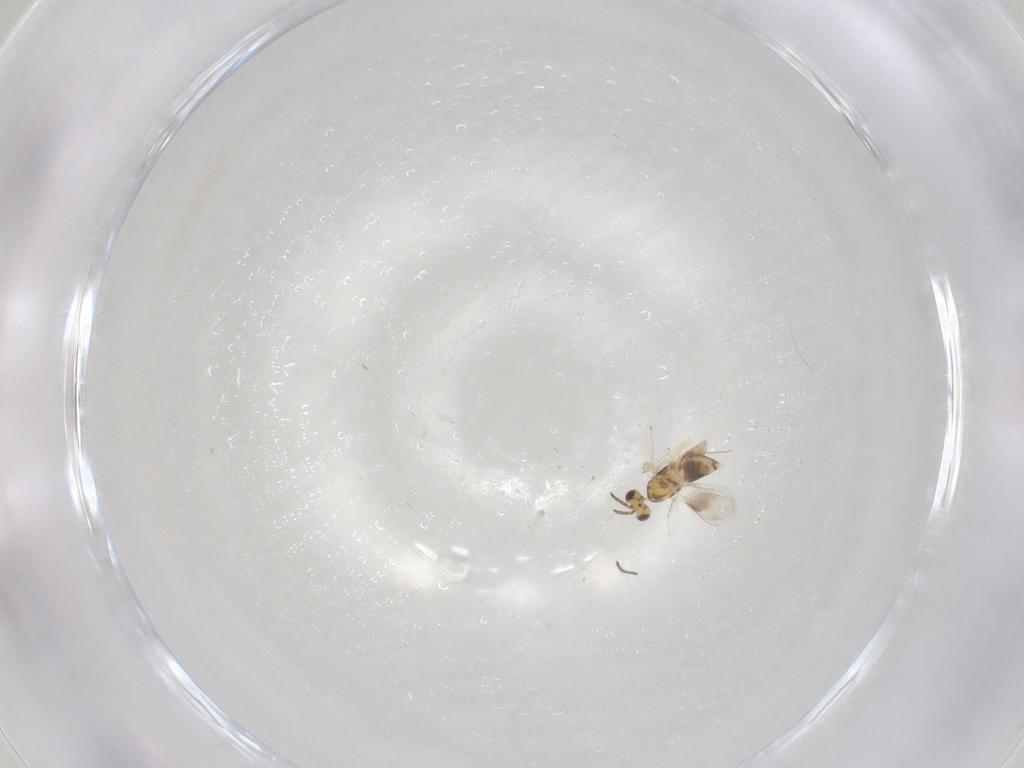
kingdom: Animalia
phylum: Arthropoda
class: Insecta
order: Hymenoptera
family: Aphelinidae
